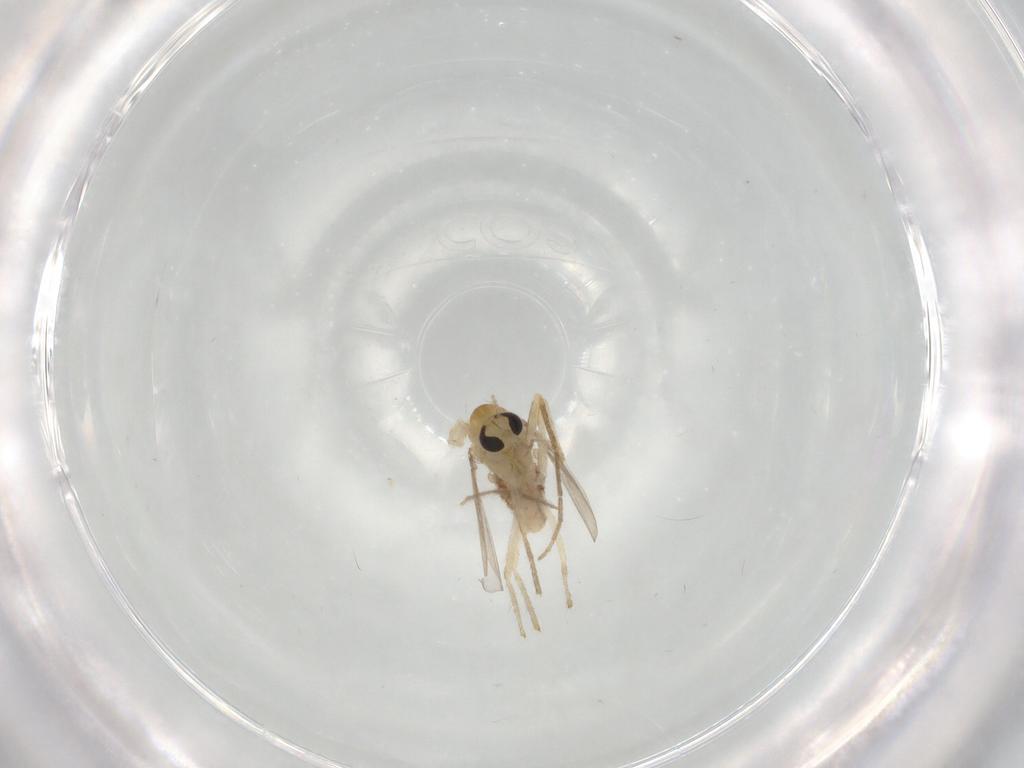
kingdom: Animalia
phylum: Arthropoda
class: Insecta
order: Diptera
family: Chironomidae
